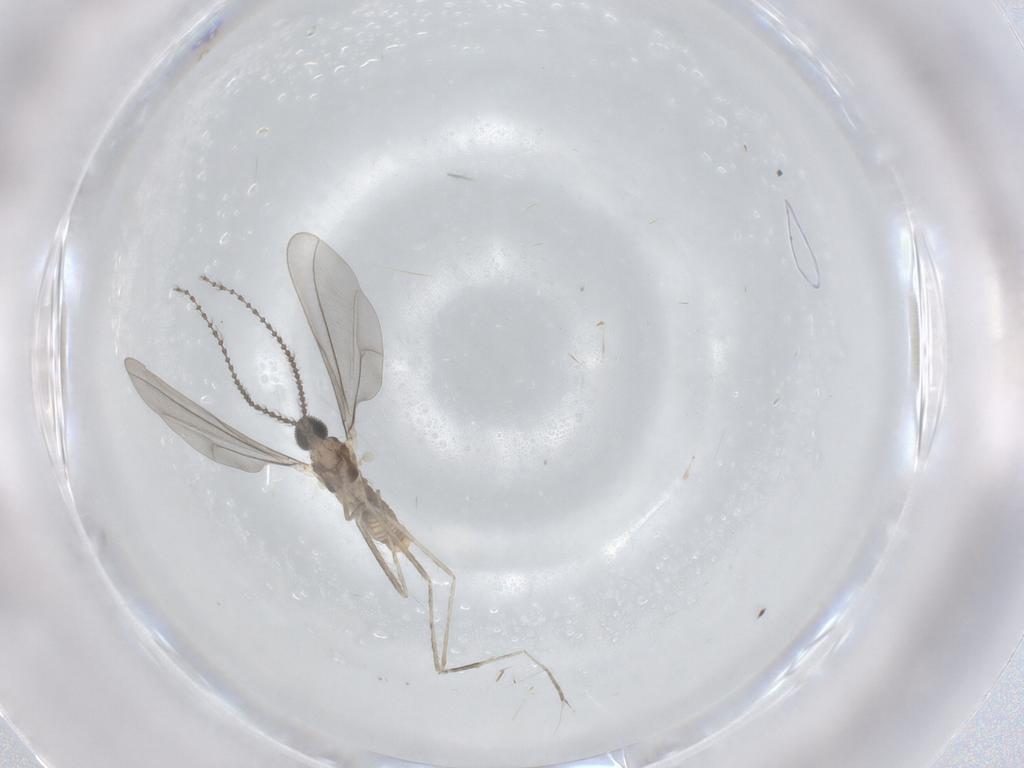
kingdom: Animalia
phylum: Arthropoda
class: Insecta
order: Diptera
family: Cecidomyiidae
